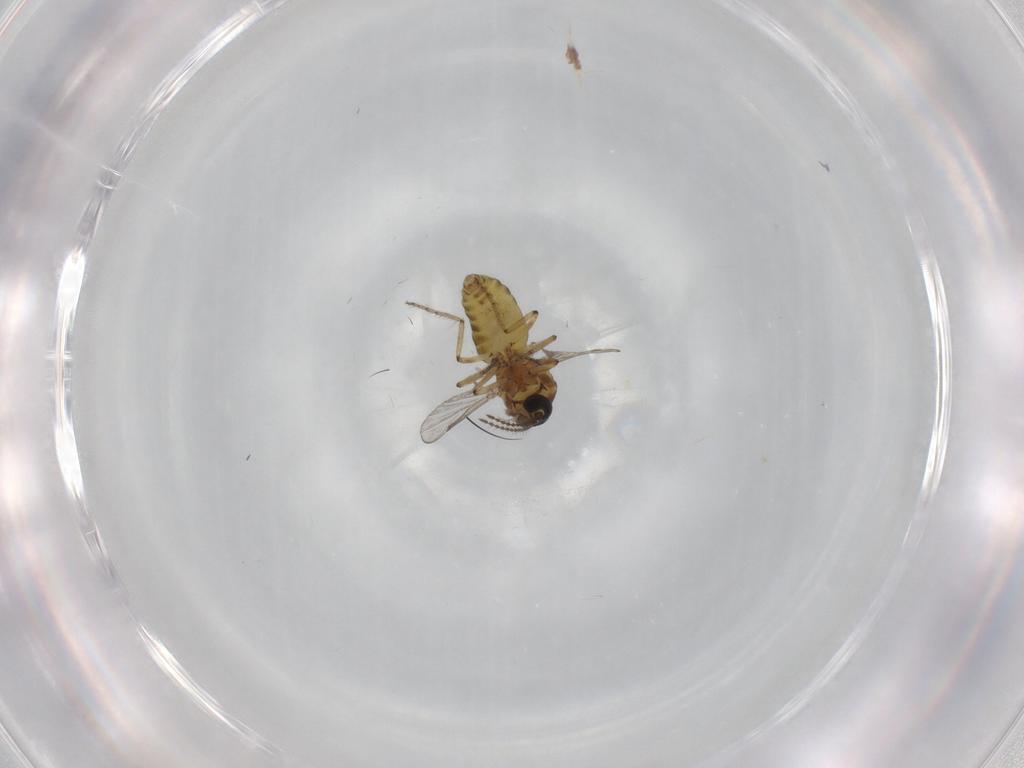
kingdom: Animalia
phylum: Arthropoda
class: Insecta
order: Diptera
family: Ceratopogonidae
